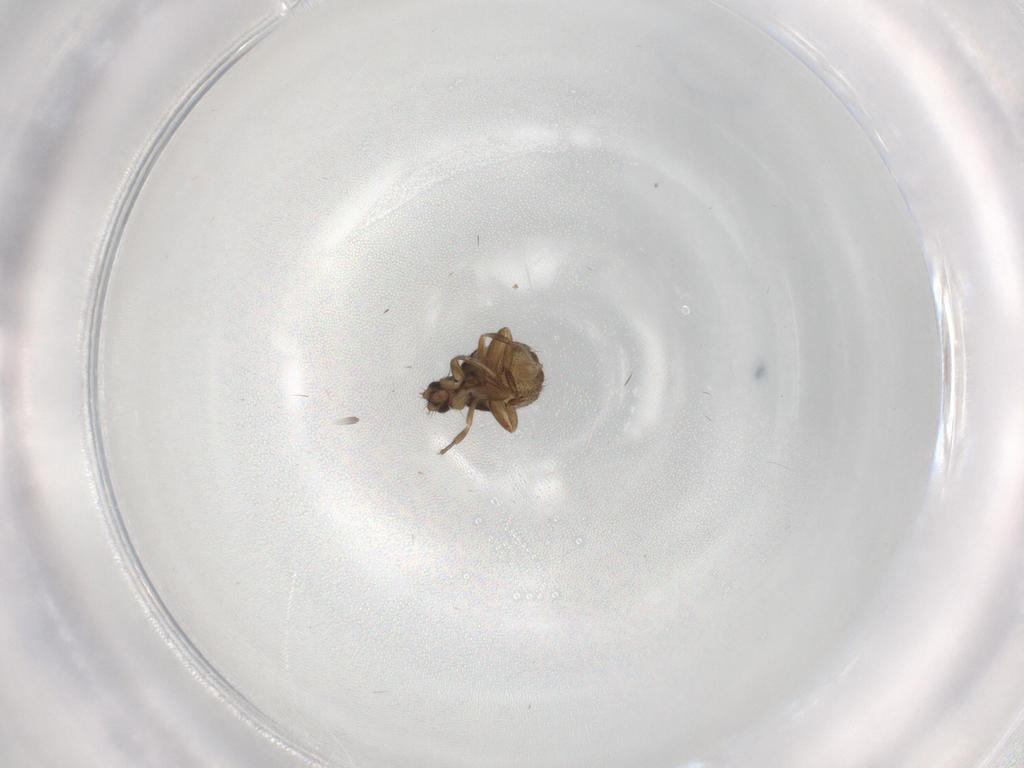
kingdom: Animalia
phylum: Arthropoda
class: Insecta
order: Diptera
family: Phoridae
